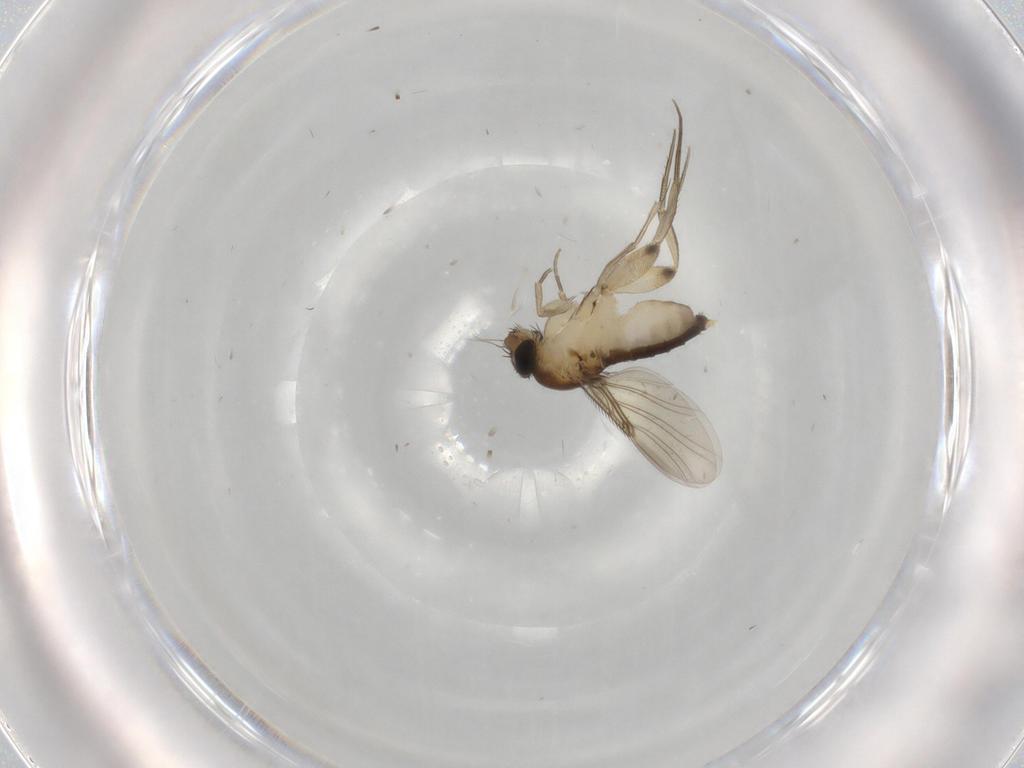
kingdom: Animalia
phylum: Arthropoda
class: Insecta
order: Diptera
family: Phoridae
